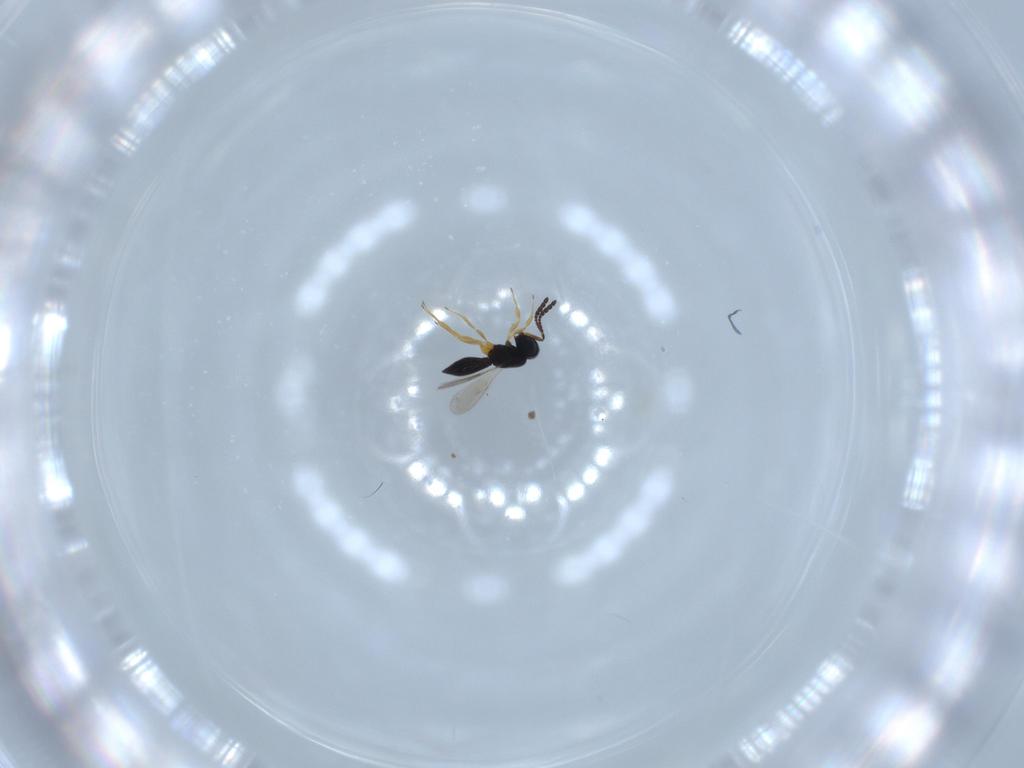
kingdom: Animalia
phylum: Arthropoda
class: Insecta
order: Hymenoptera
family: Scelionidae
